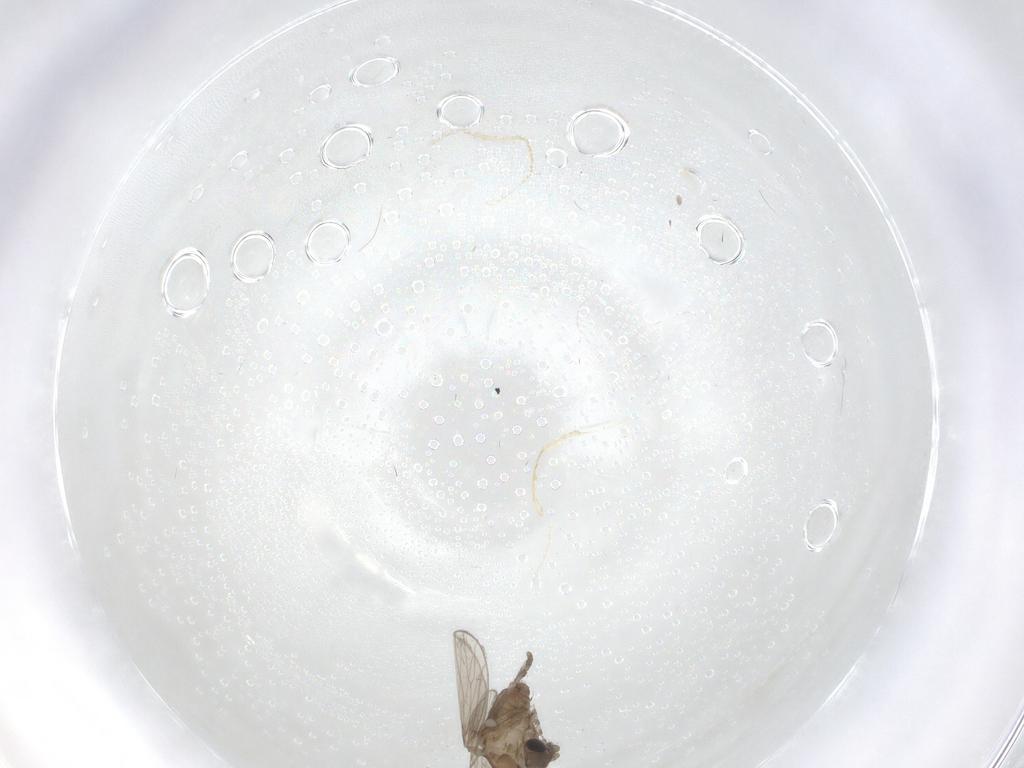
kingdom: Animalia
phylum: Arthropoda
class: Insecta
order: Diptera
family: Psychodidae
